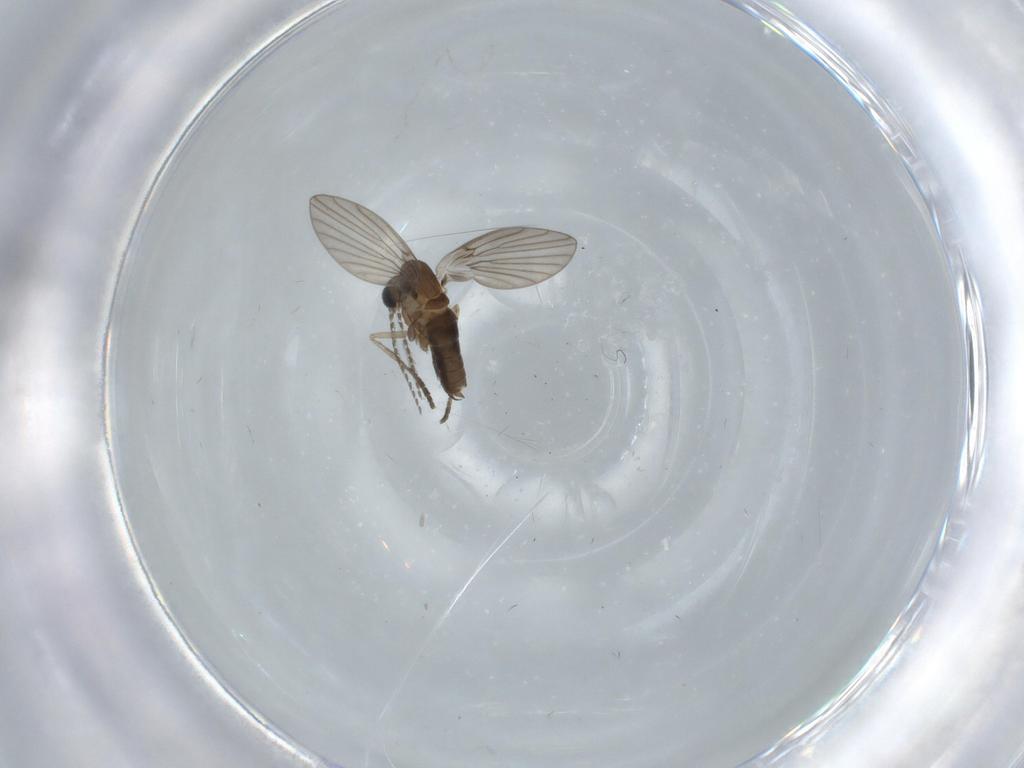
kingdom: Animalia
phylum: Arthropoda
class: Insecta
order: Diptera
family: Psychodidae
